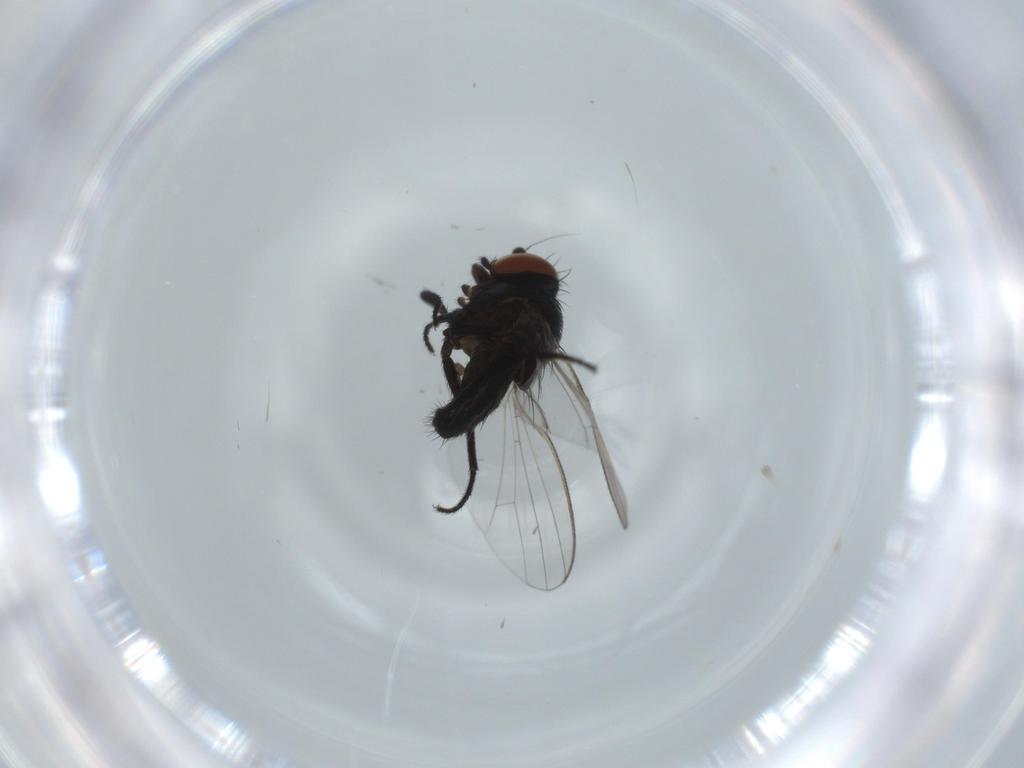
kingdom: Animalia
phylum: Arthropoda
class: Insecta
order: Diptera
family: Milichiidae
